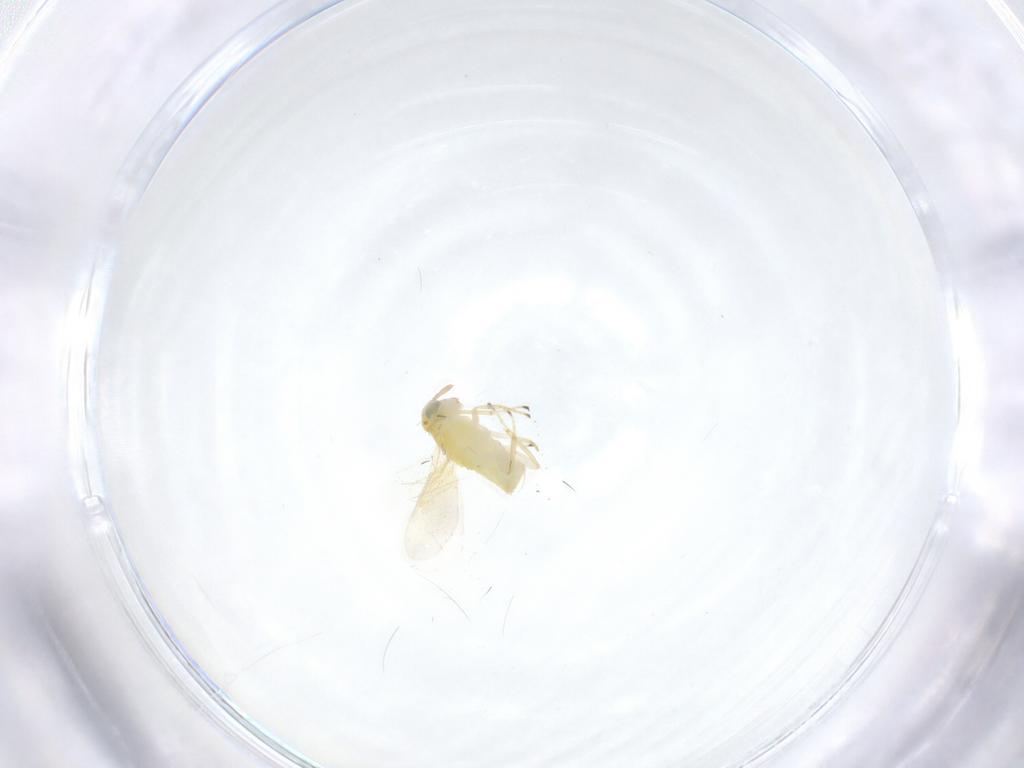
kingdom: Animalia
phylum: Arthropoda
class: Insecta
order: Hymenoptera
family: Aphelinidae
